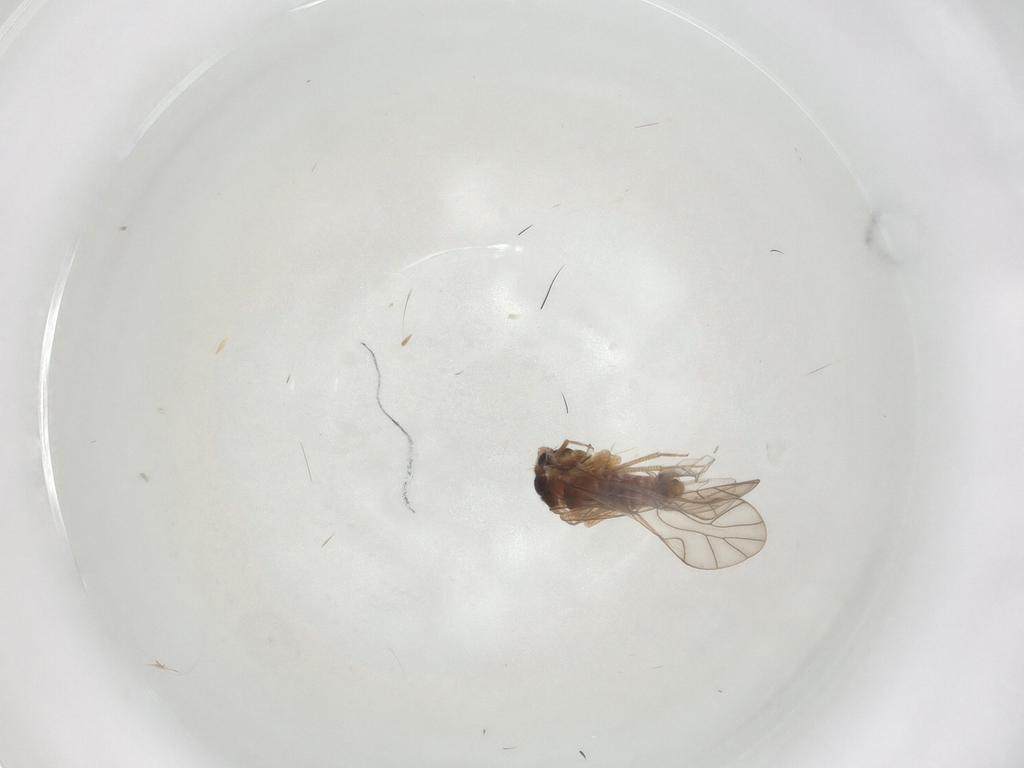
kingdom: Animalia
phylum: Arthropoda
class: Insecta
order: Psocodea
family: Lachesillidae
